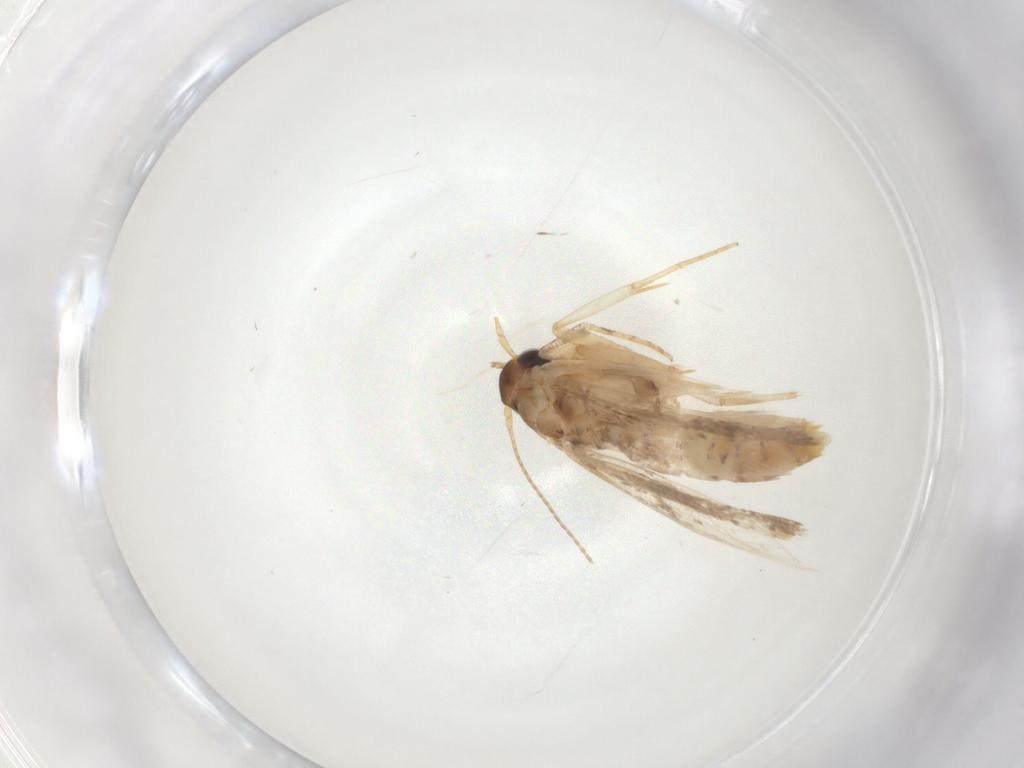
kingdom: Animalia
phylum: Arthropoda
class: Insecta
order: Lepidoptera
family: Gelechiidae
